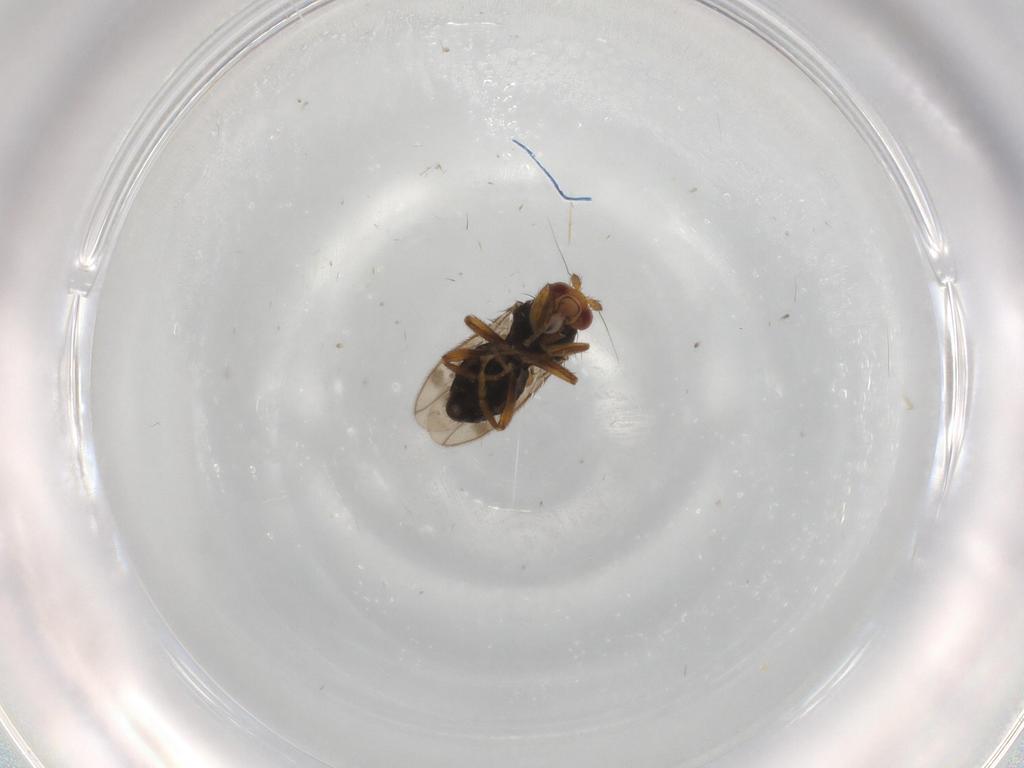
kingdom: Animalia
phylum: Arthropoda
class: Insecta
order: Diptera
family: Sphaeroceridae
